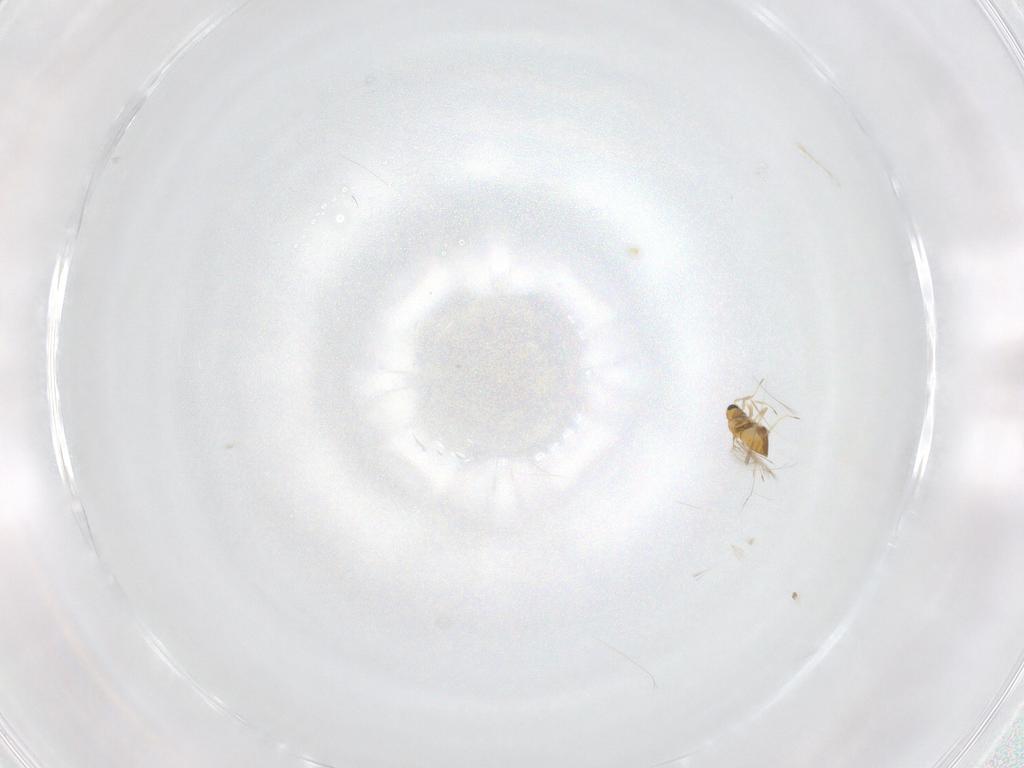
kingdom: Animalia
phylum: Arthropoda
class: Insecta
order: Hymenoptera
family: Trichogrammatidae
